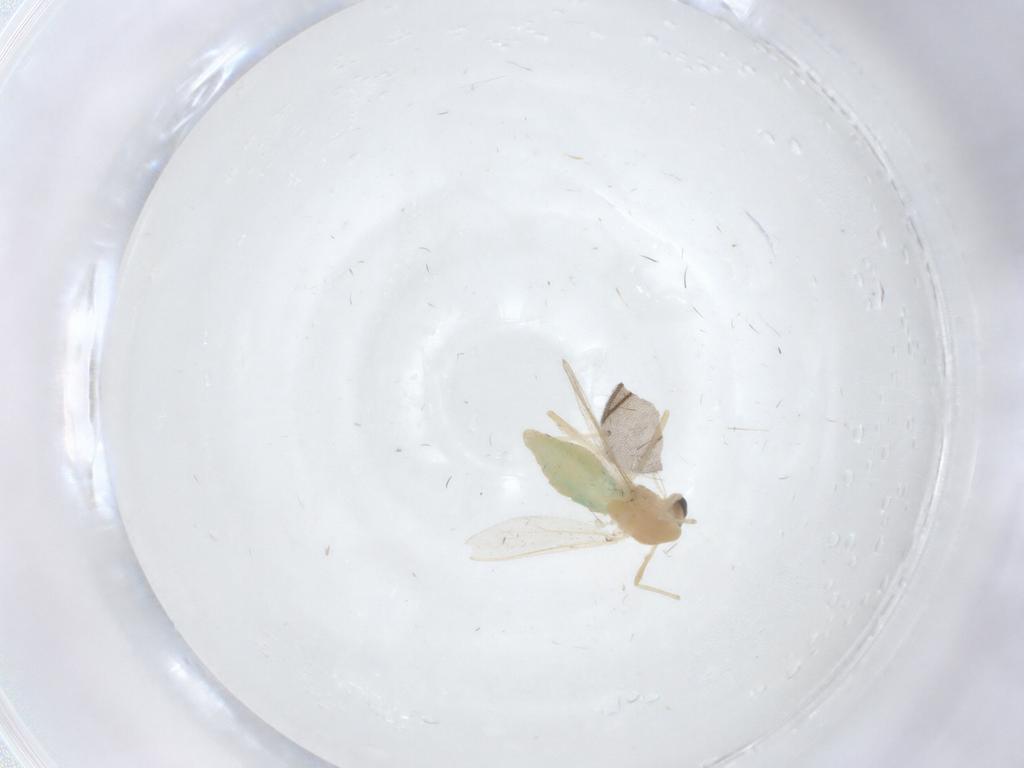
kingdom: Animalia
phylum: Arthropoda
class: Insecta
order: Diptera
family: Chironomidae
